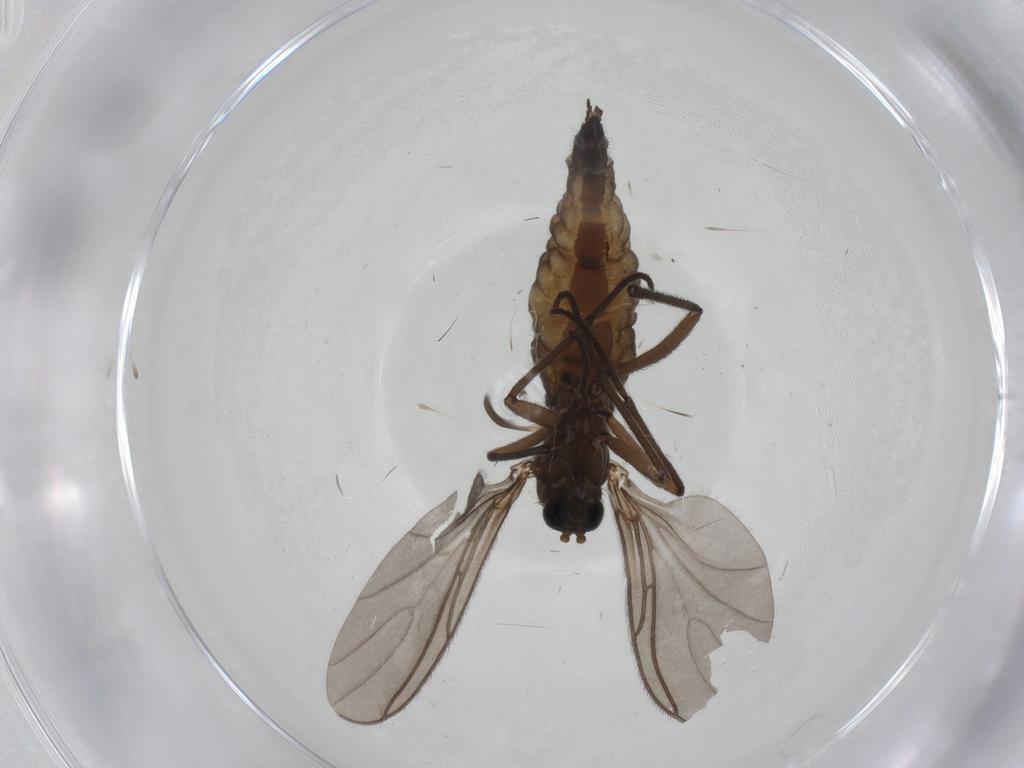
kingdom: Animalia
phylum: Arthropoda
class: Insecta
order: Diptera
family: Sciaridae
